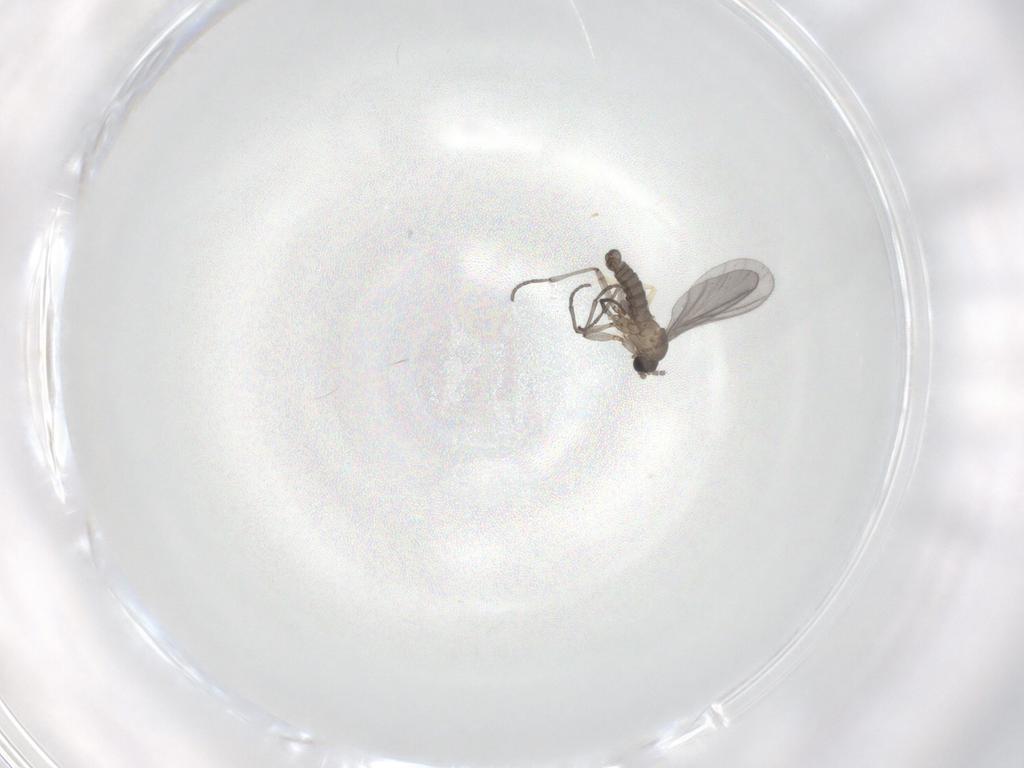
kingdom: Animalia
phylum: Arthropoda
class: Insecta
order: Diptera
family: Sciaridae
